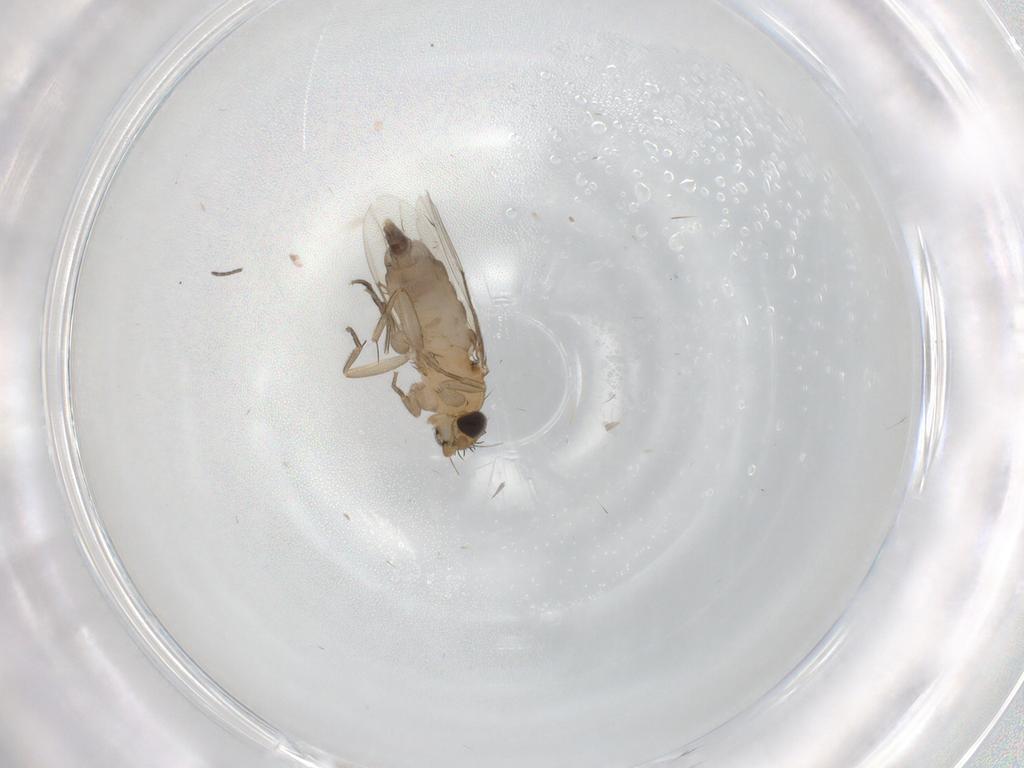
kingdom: Animalia
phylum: Arthropoda
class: Insecta
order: Diptera
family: Phoridae
